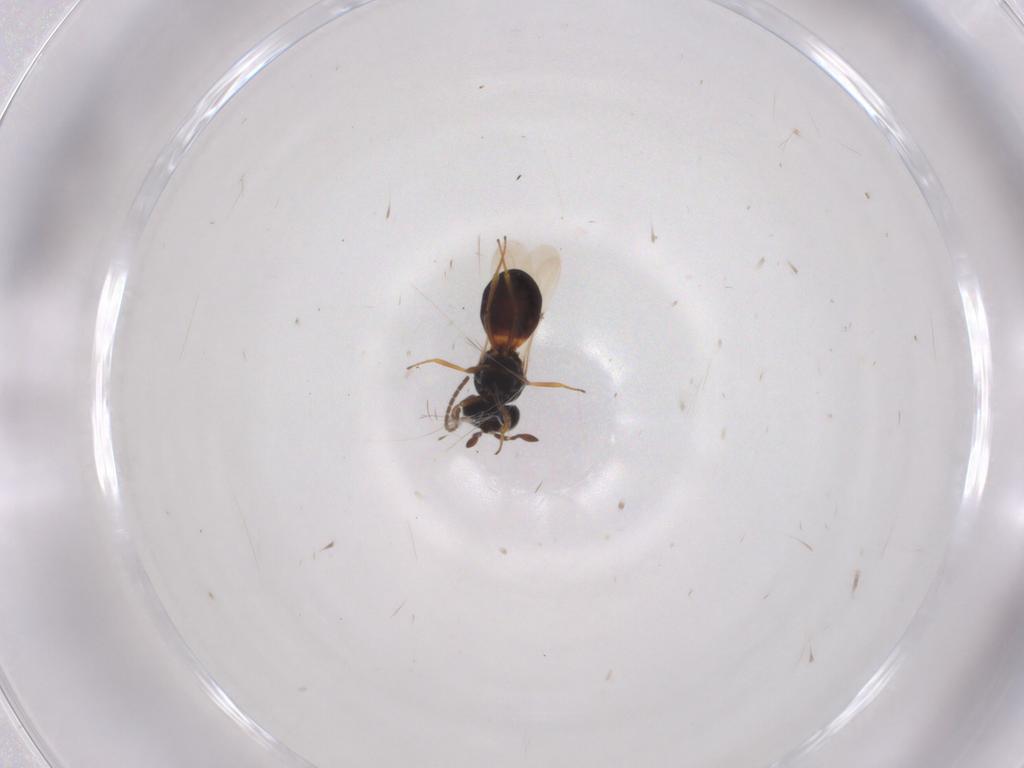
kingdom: Animalia
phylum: Arthropoda
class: Insecta
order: Hymenoptera
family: Scelionidae
